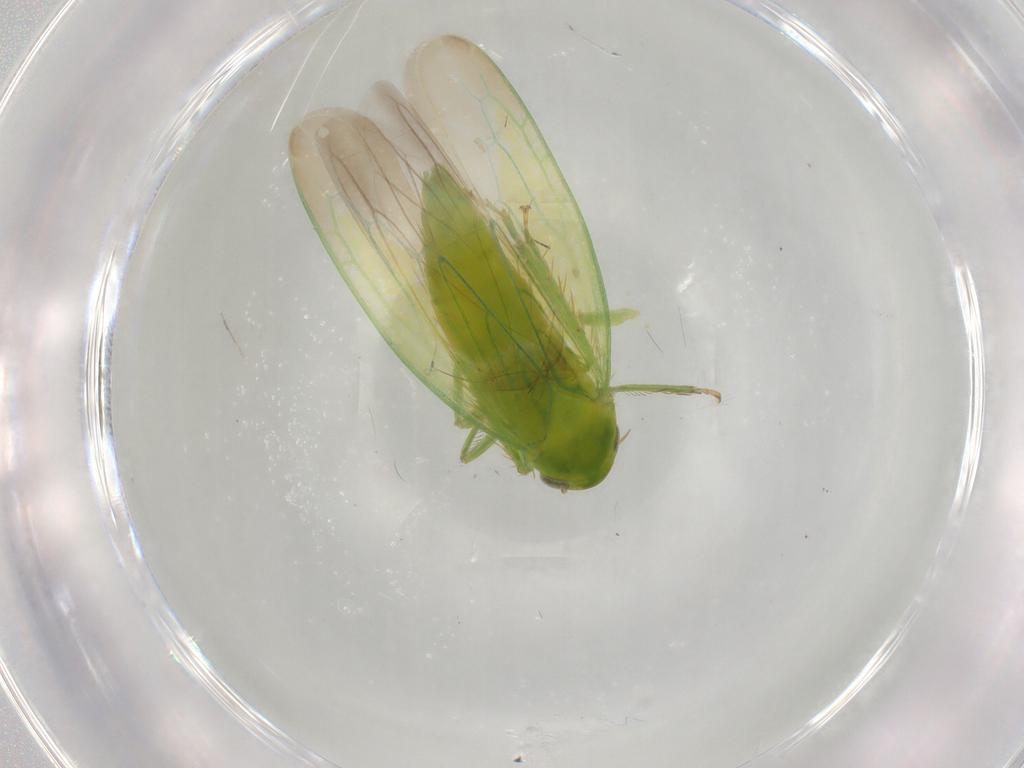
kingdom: Animalia
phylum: Arthropoda
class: Insecta
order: Hemiptera
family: Cicadellidae
